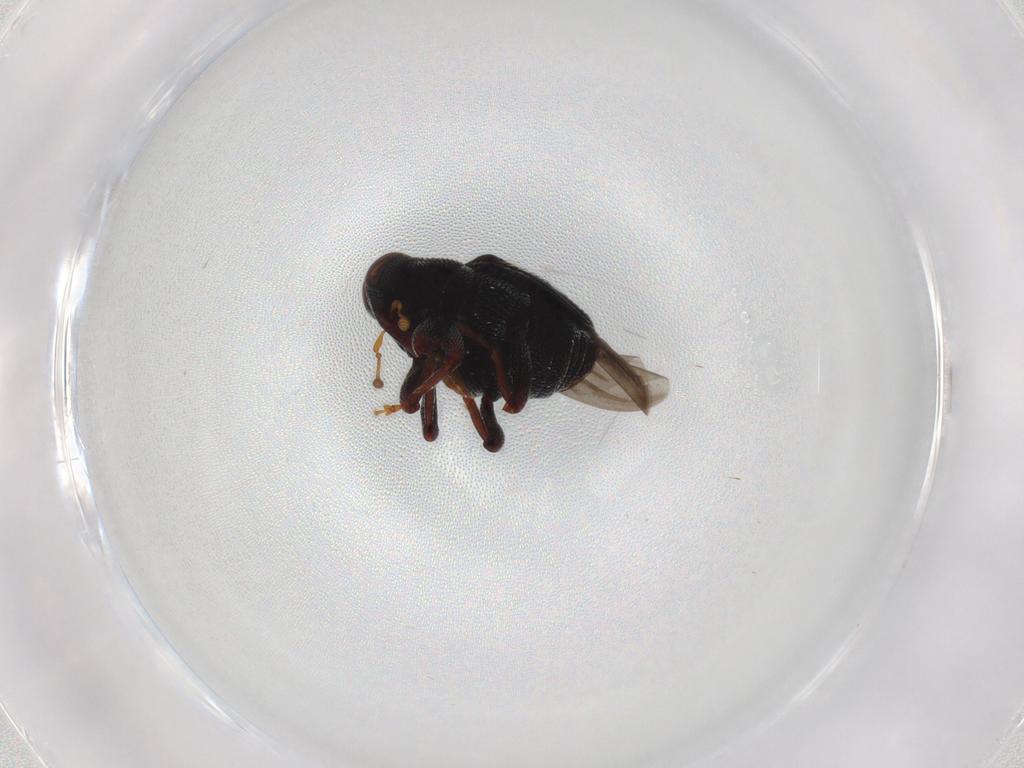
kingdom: Animalia
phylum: Arthropoda
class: Insecta
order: Coleoptera
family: Curculionidae
